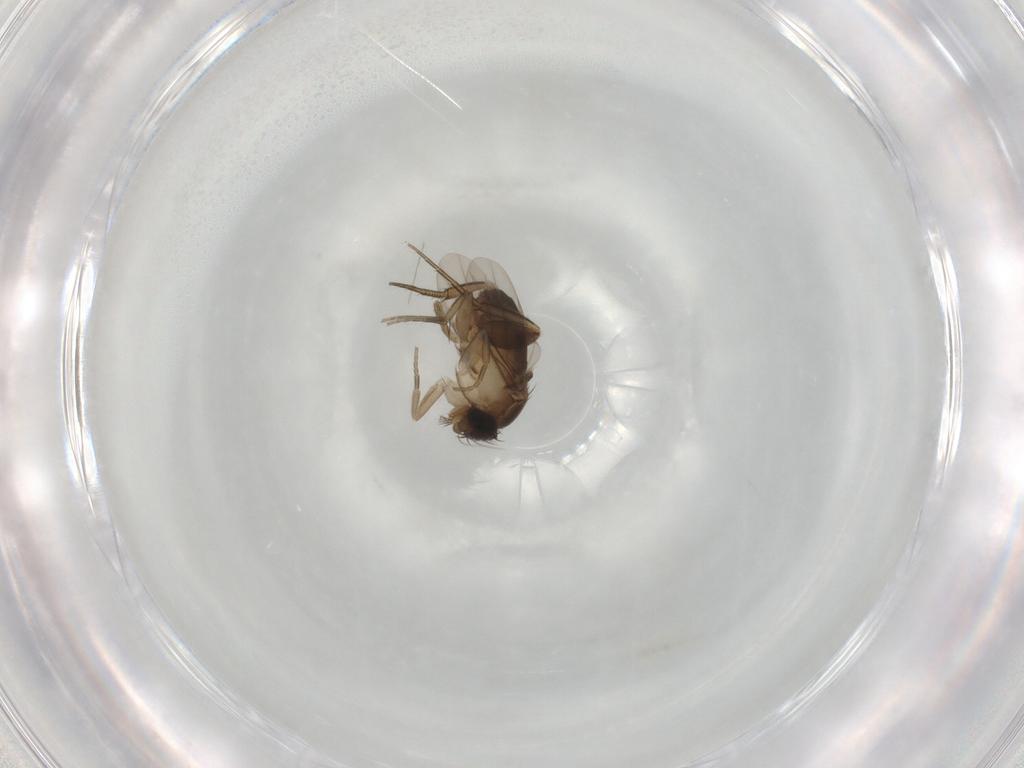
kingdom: Animalia
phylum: Arthropoda
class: Insecta
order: Diptera
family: Phoridae
